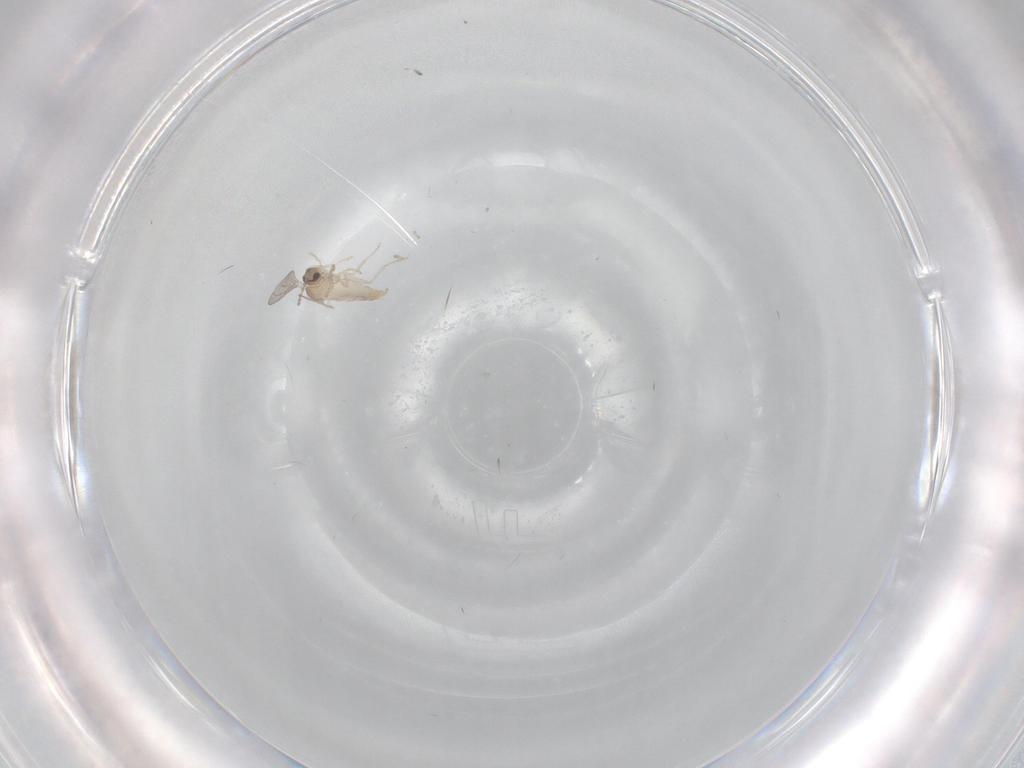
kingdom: Animalia
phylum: Arthropoda
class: Insecta
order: Diptera
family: Cecidomyiidae
